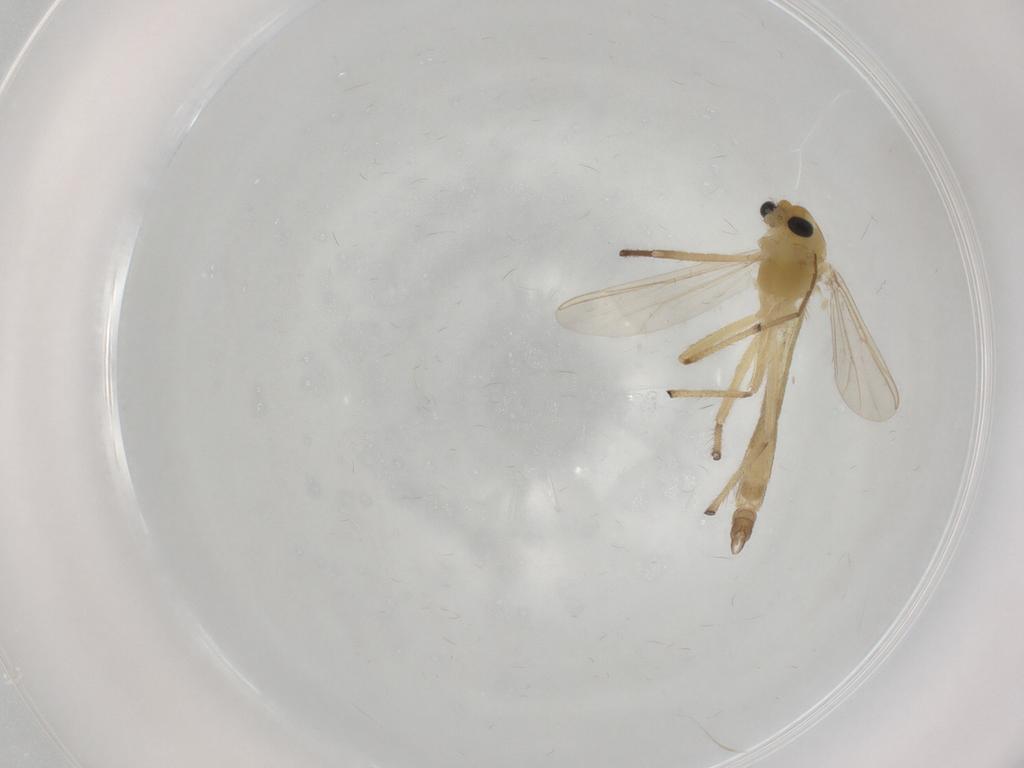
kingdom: Animalia
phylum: Arthropoda
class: Insecta
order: Diptera
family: Chironomidae
